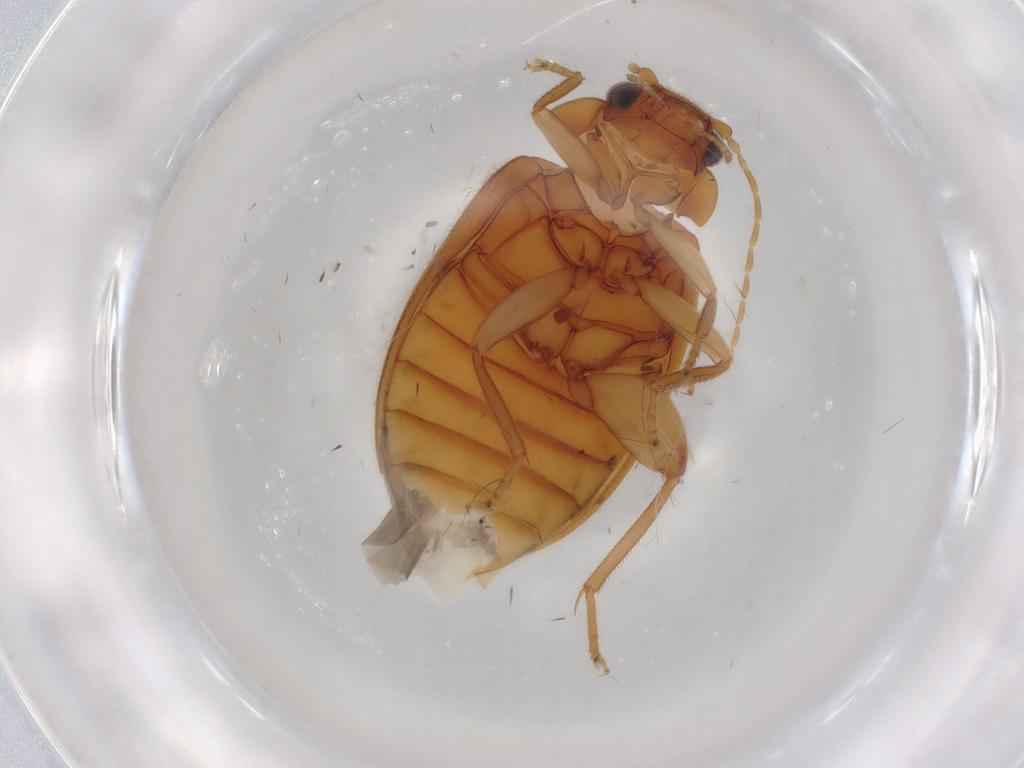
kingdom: Animalia
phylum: Arthropoda
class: Insecta
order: Coleoptera
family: Scirtidae
